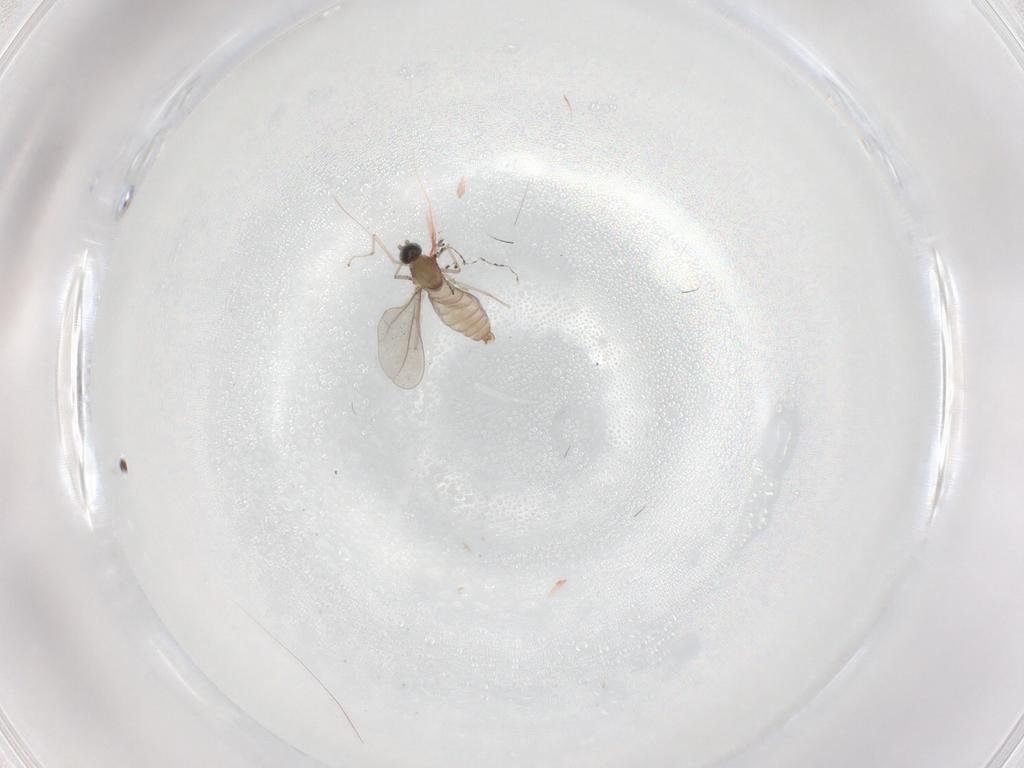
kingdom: Animalia
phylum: Arthropoda
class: Insecta
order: Diptera
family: Cecidomyiidae
